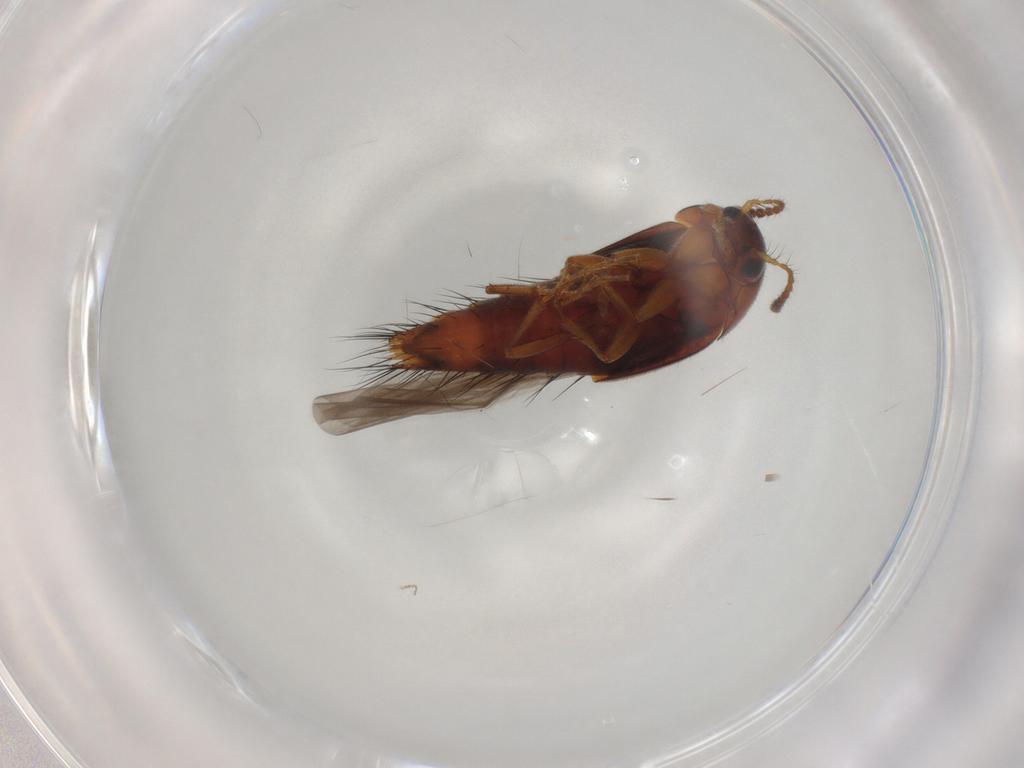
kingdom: Animalia
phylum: Arthropoda
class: Insecta
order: Coleoptera
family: Staphylinidae
